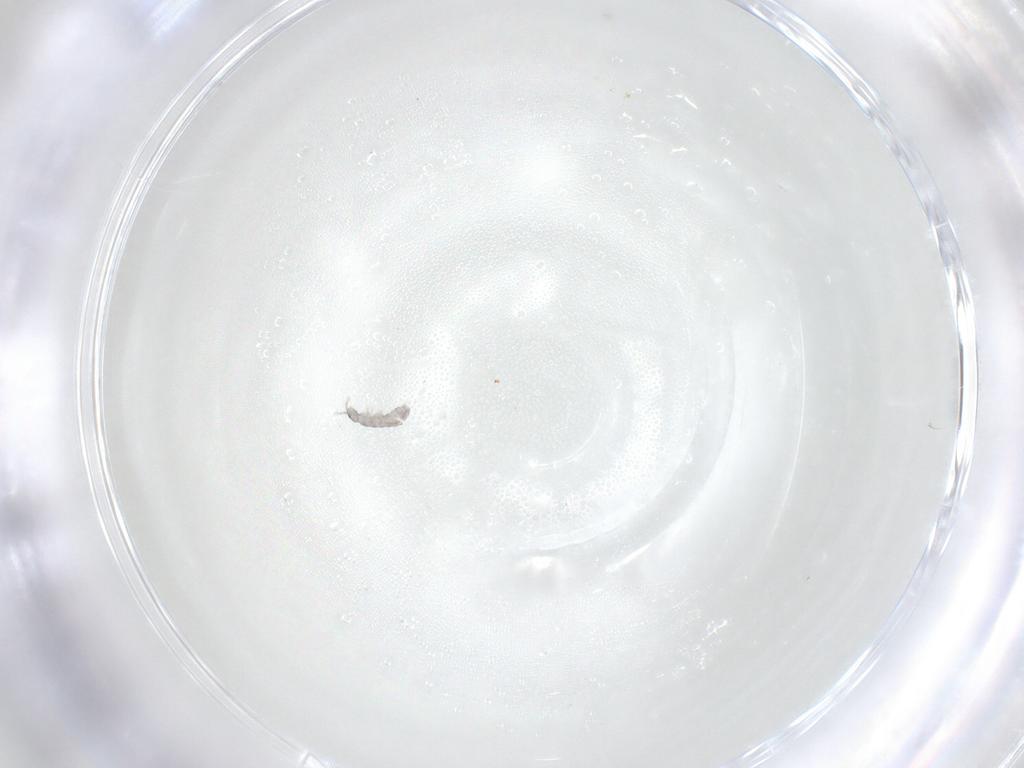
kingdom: Animalia
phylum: Arthropoda
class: Collembola
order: Entomobryomorpha
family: Isotomidae
